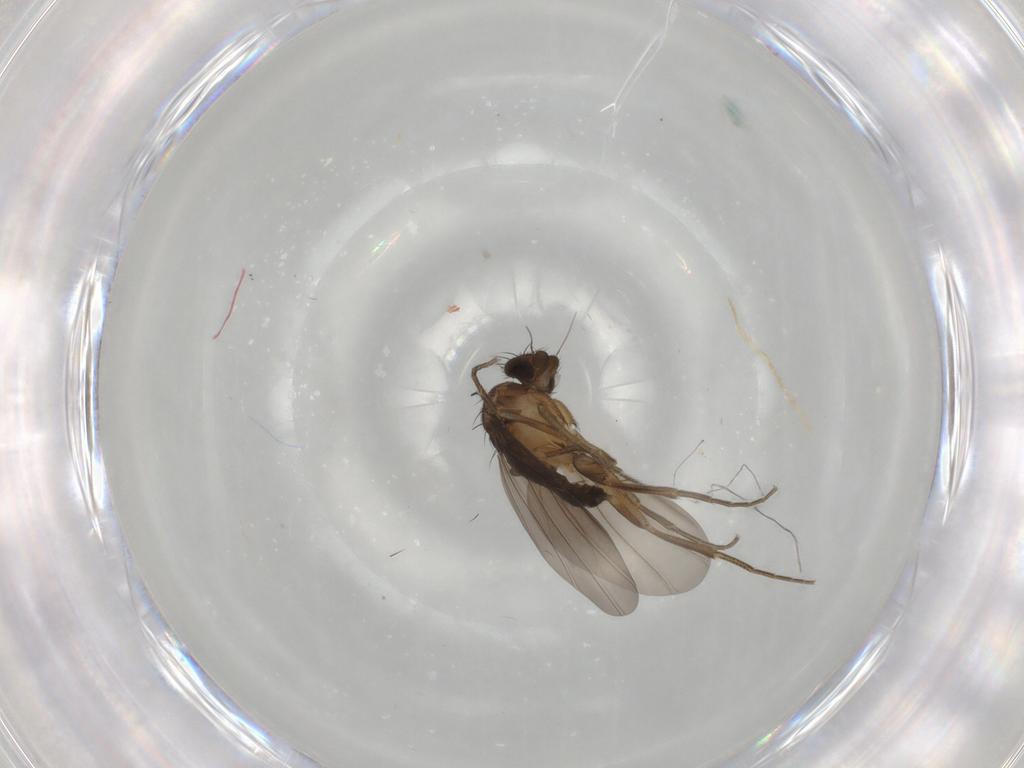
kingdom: Animalia
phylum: Arthropoda
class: Insecta
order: Diptera
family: Phoridae
